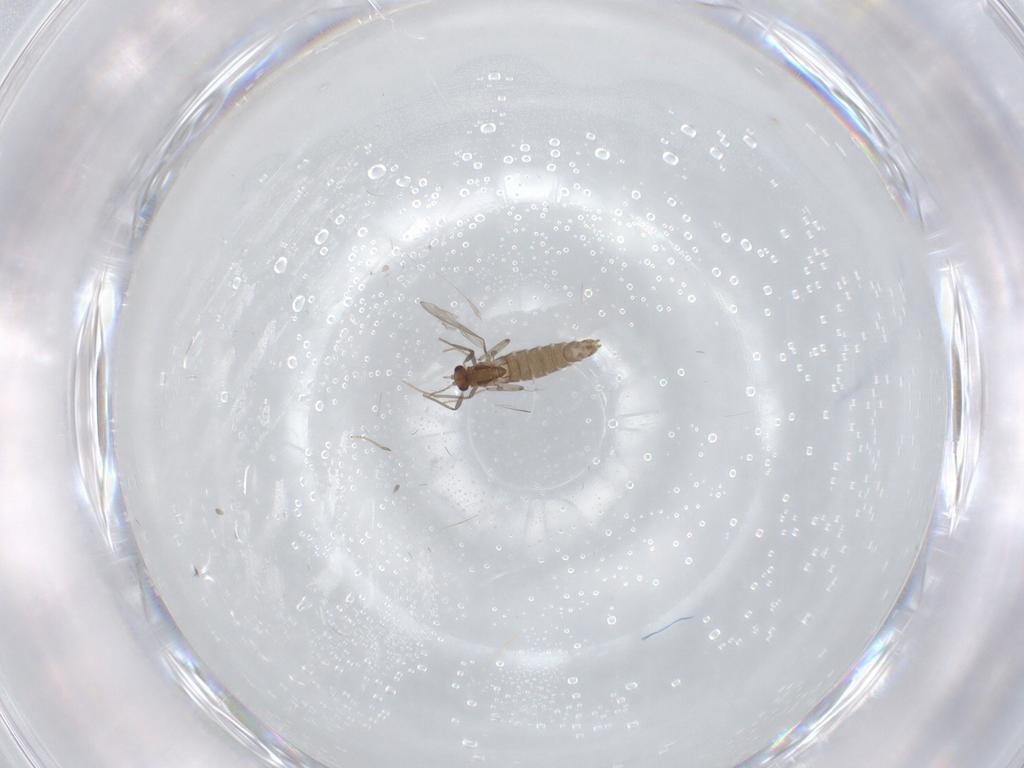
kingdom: Animalia
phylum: Arthropoda
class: Insecta
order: Diptera
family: Chironomidae
